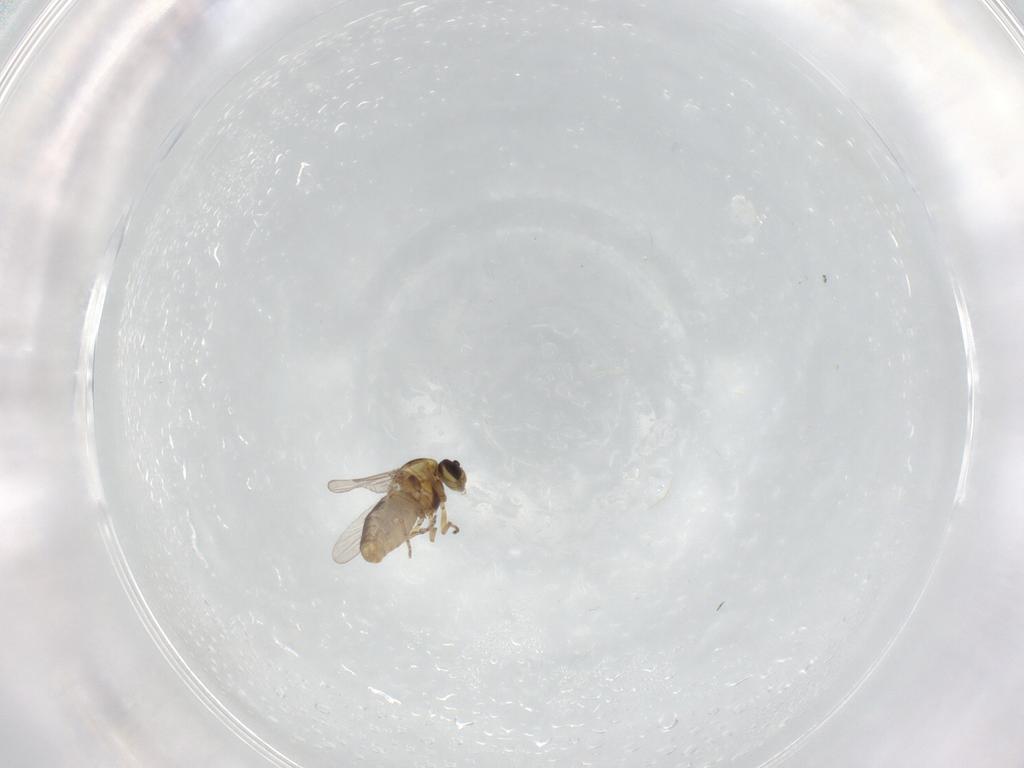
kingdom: Animalia
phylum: Arthropoda
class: Insecta
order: Diptera
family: Ceratopogonidae
